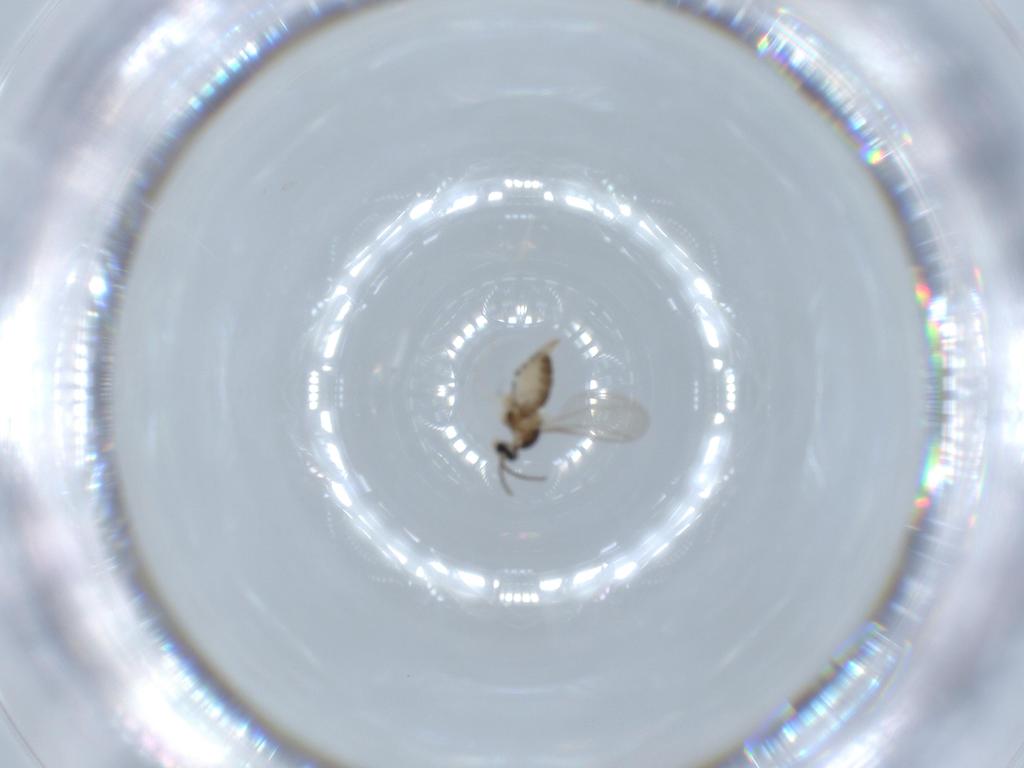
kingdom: Animalia
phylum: Arthropoda
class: Insecta
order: Diptera
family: Cecidomyiidae
